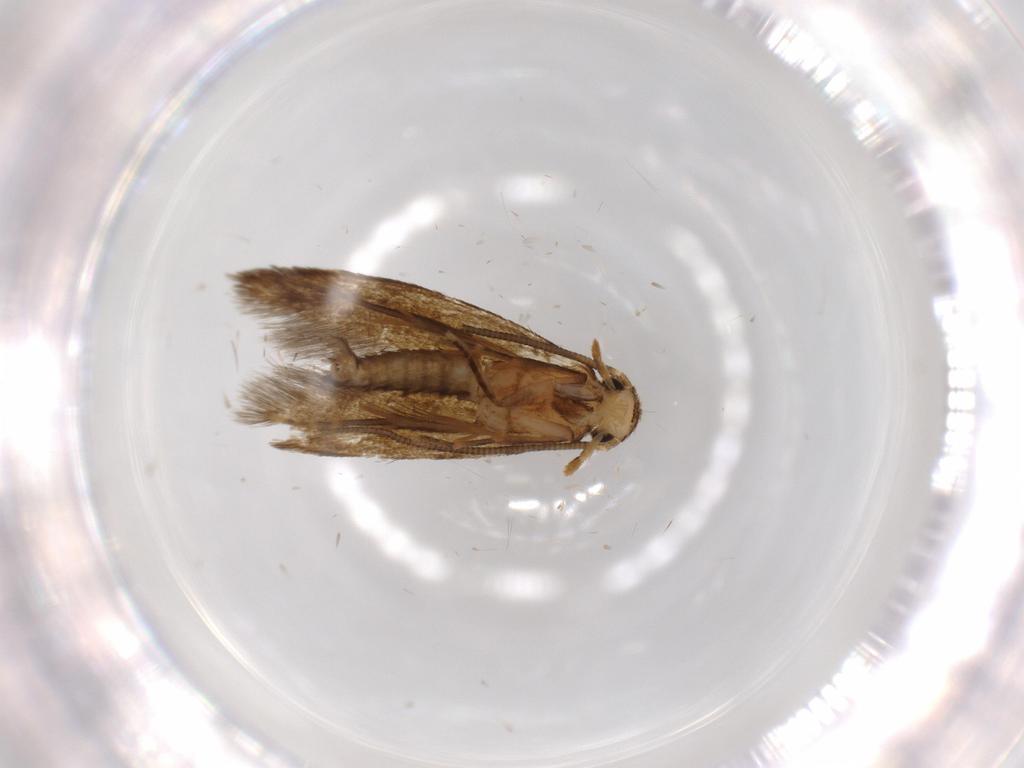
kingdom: Animalia
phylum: Arthropoda
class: Insecta
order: Lepidoptera
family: Tineidae
